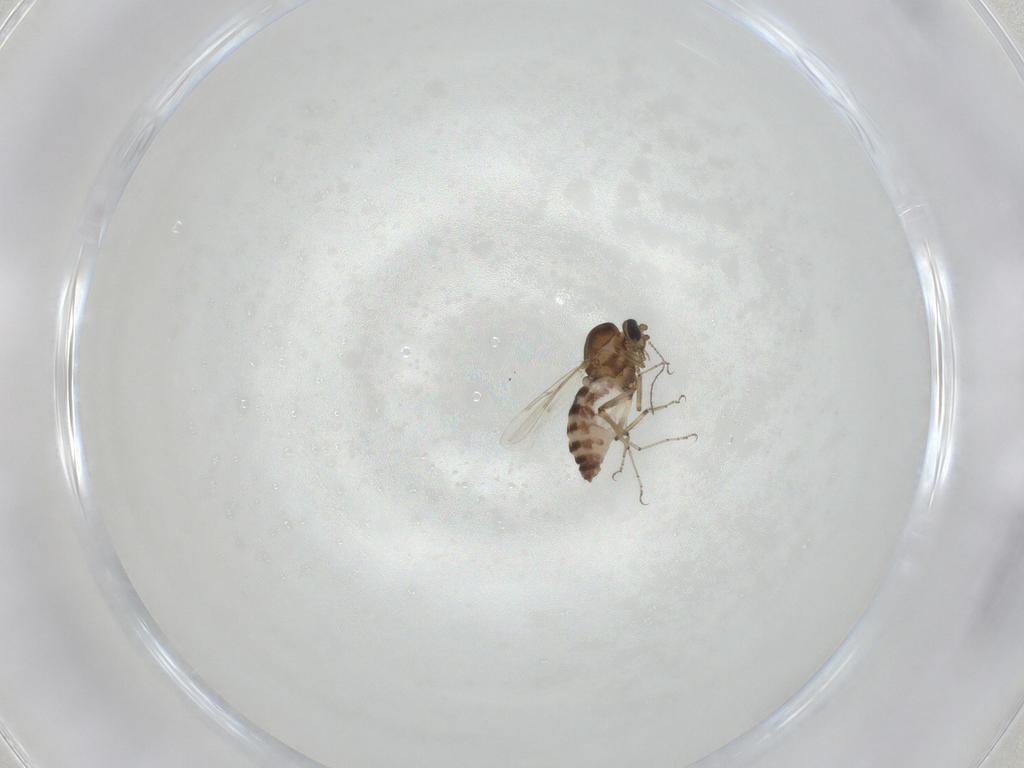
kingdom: Animalia
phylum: Arthropoda
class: Insecta
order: Diptera
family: Ceratopogonidae
